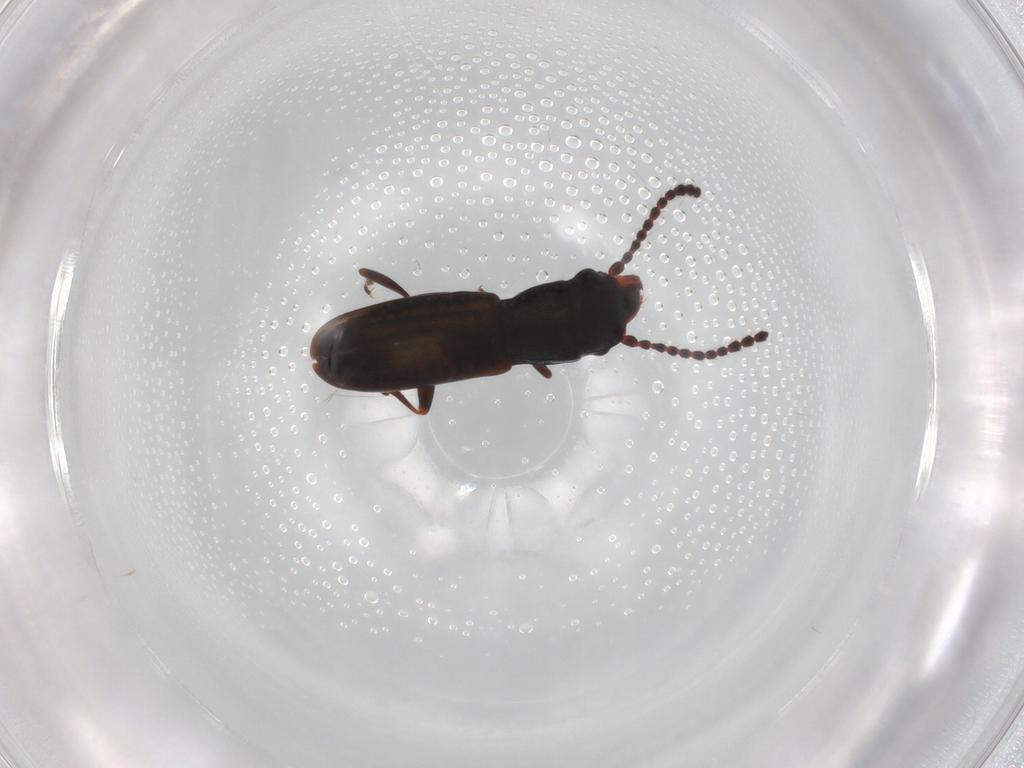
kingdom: Animalia
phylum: Arthropoda
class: Insecta
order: Coleoptera
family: Laemophloeidae
